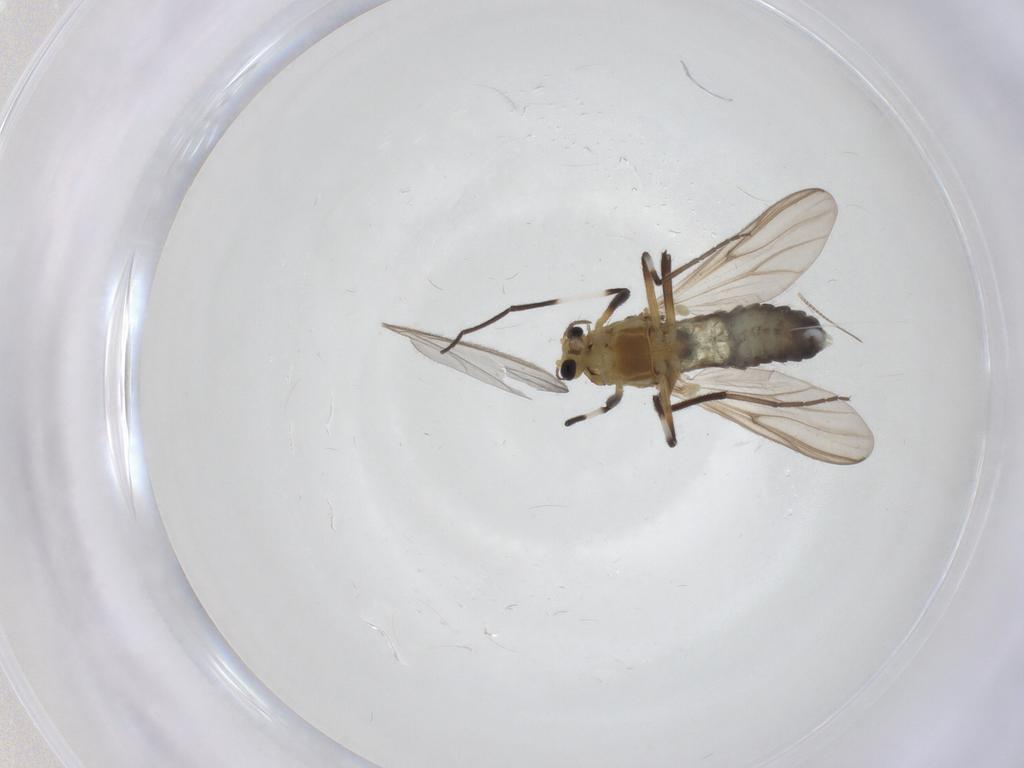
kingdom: Animalia
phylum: Arthropoda
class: Insecta
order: Diptera
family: Chironomidae
